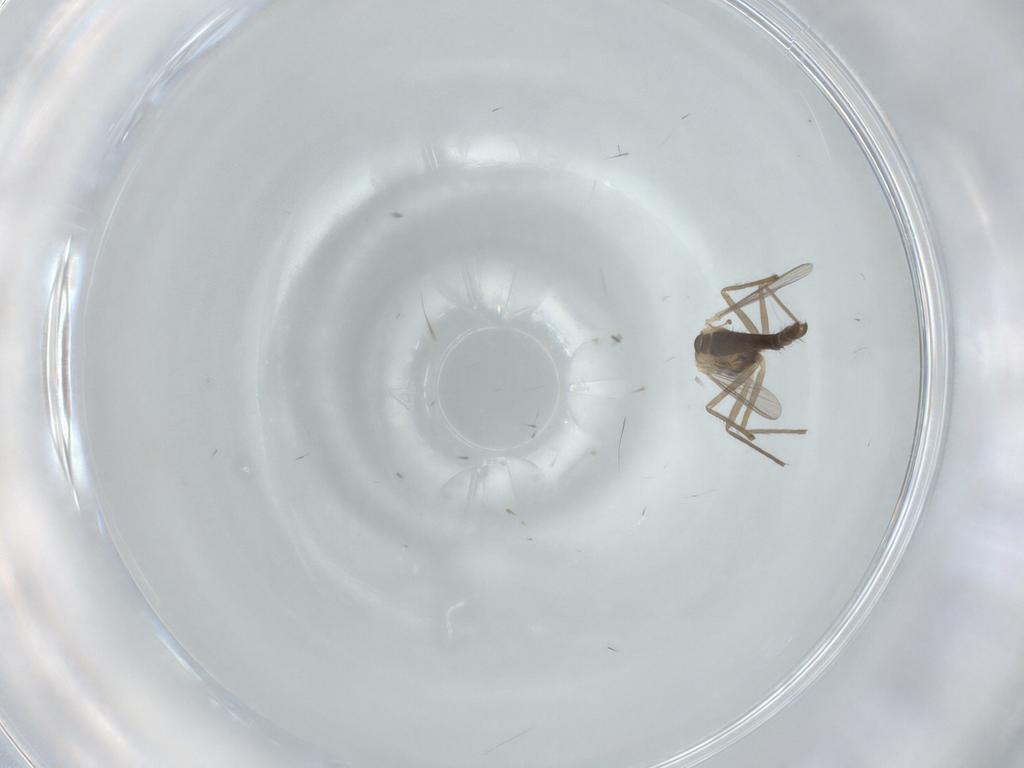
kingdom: Animalia
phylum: Arthropoda
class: Insecta
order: Diptera
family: Chironomidae
